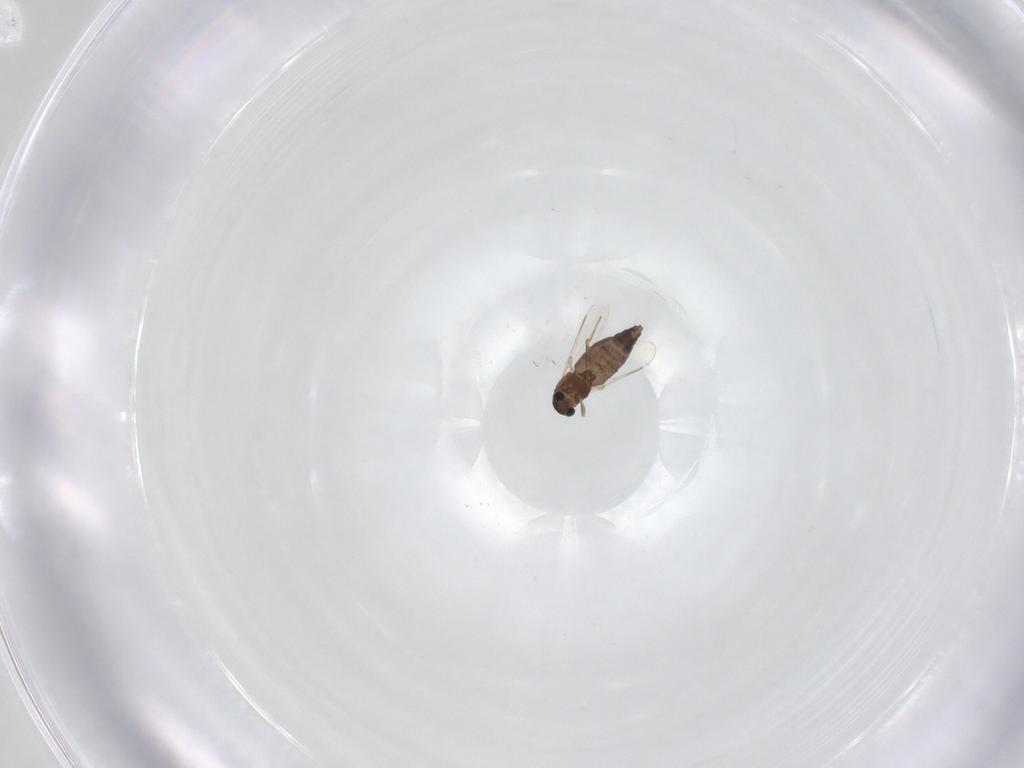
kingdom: Animalia
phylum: Arthropoda
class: Insecta
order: Diptera
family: Chironomidae
